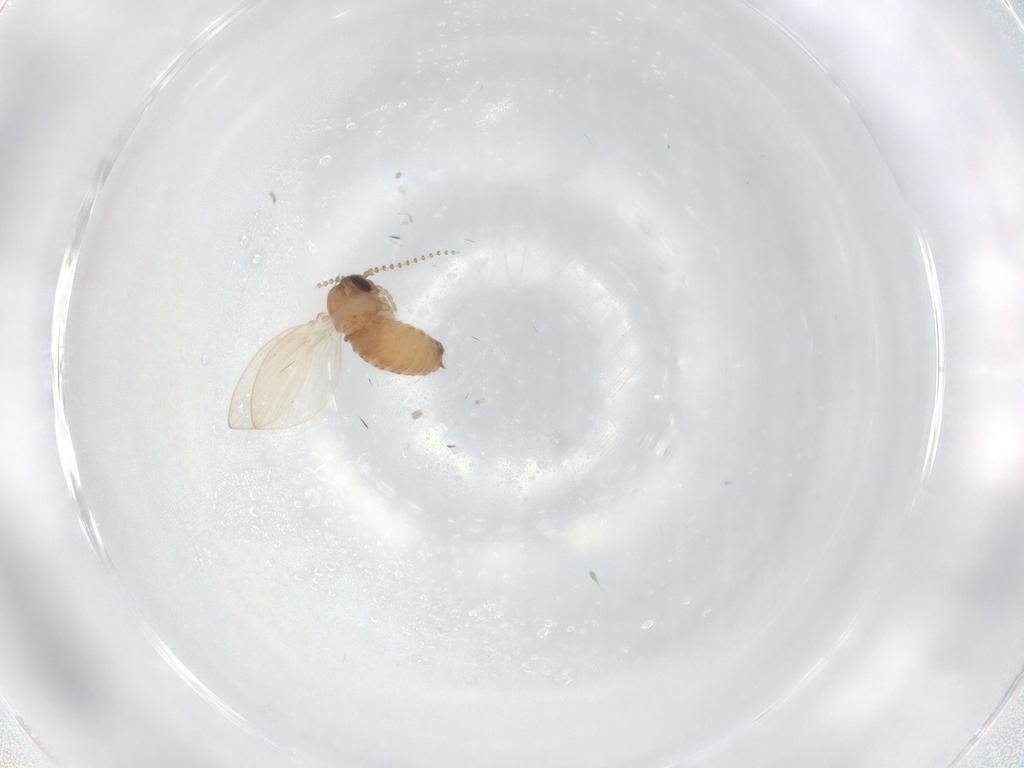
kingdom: Animalia
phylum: Arthropoda
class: Insecta
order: Diptera
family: Psychodidae
